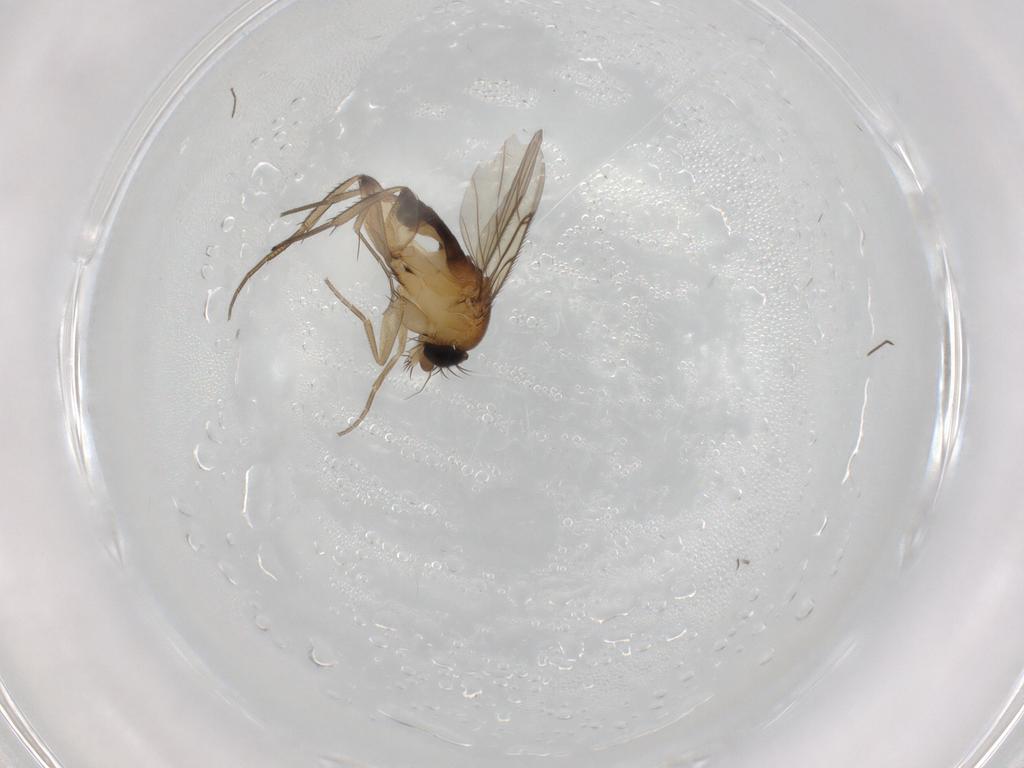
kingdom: Animalia
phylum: Arthropoda
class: Insecta
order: Diptera
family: Phoridae
